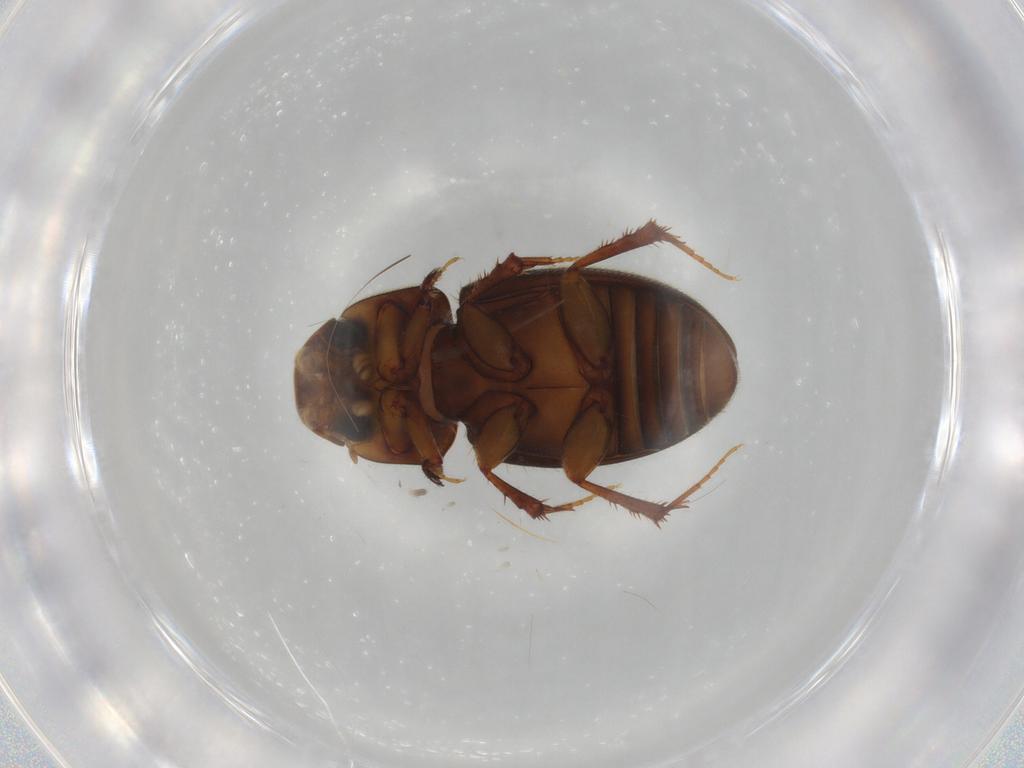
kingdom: Animalia
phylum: Arthropoda
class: Insecta
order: Coleoptera
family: Scarabaeidae
